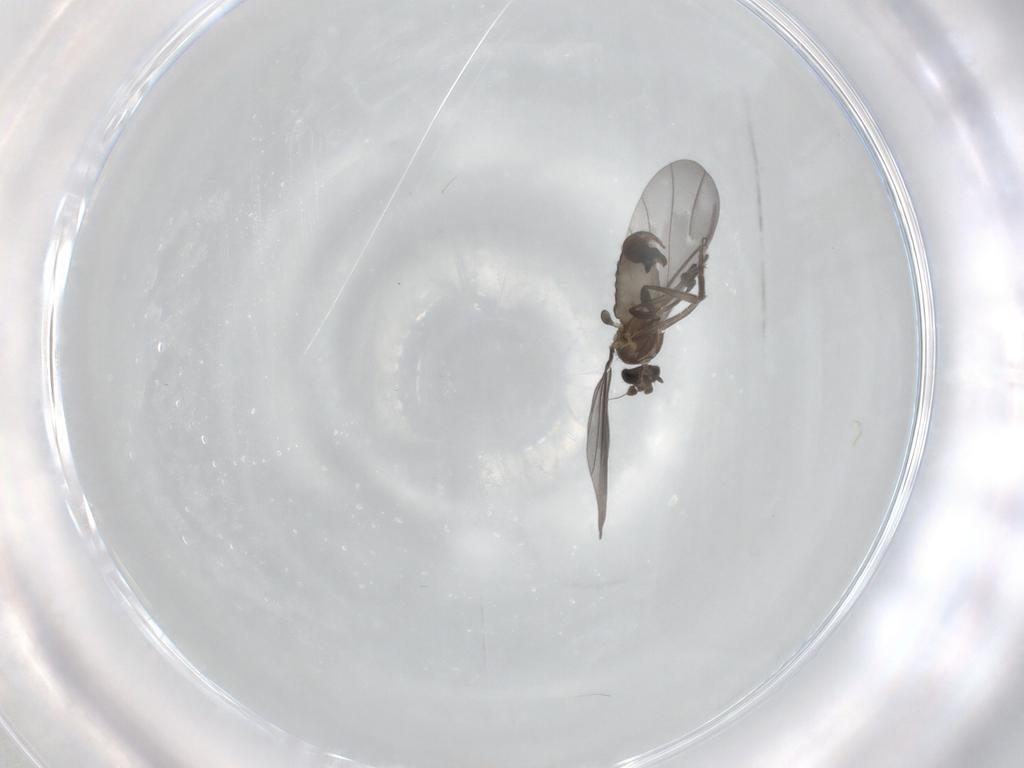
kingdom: Animalia
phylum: Arthropoda
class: Insecta
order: Diptera
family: Phoridae
